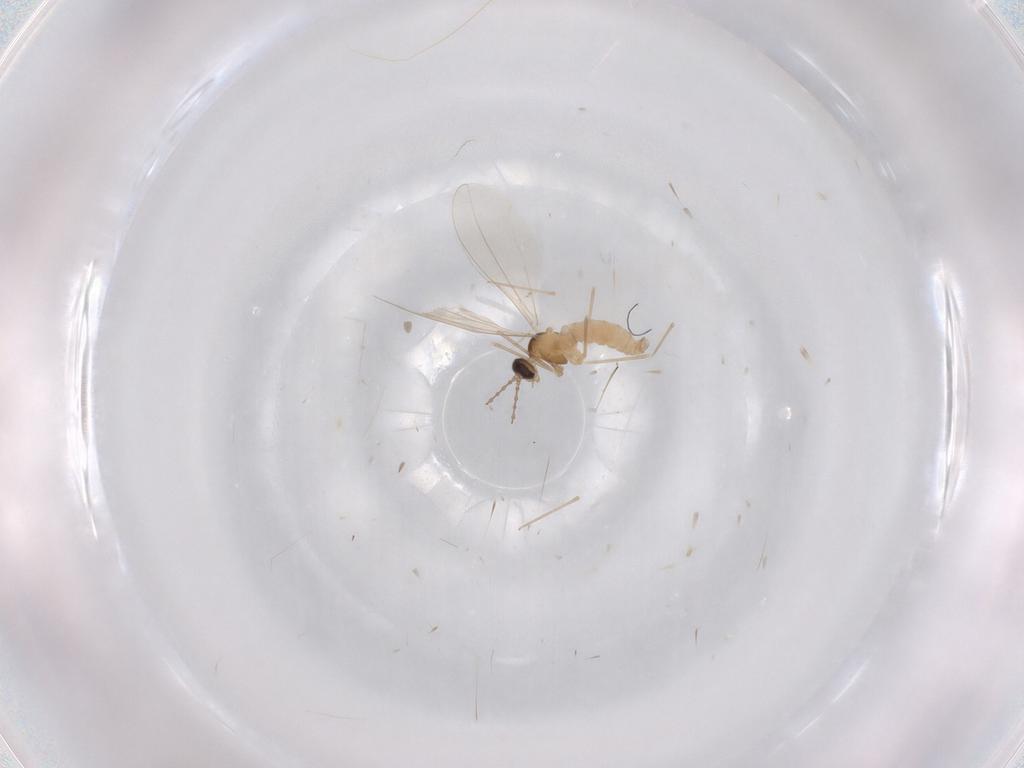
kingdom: Animalia
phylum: Arthropoda
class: Insecta
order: Diptera
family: Cecidomyiidae
